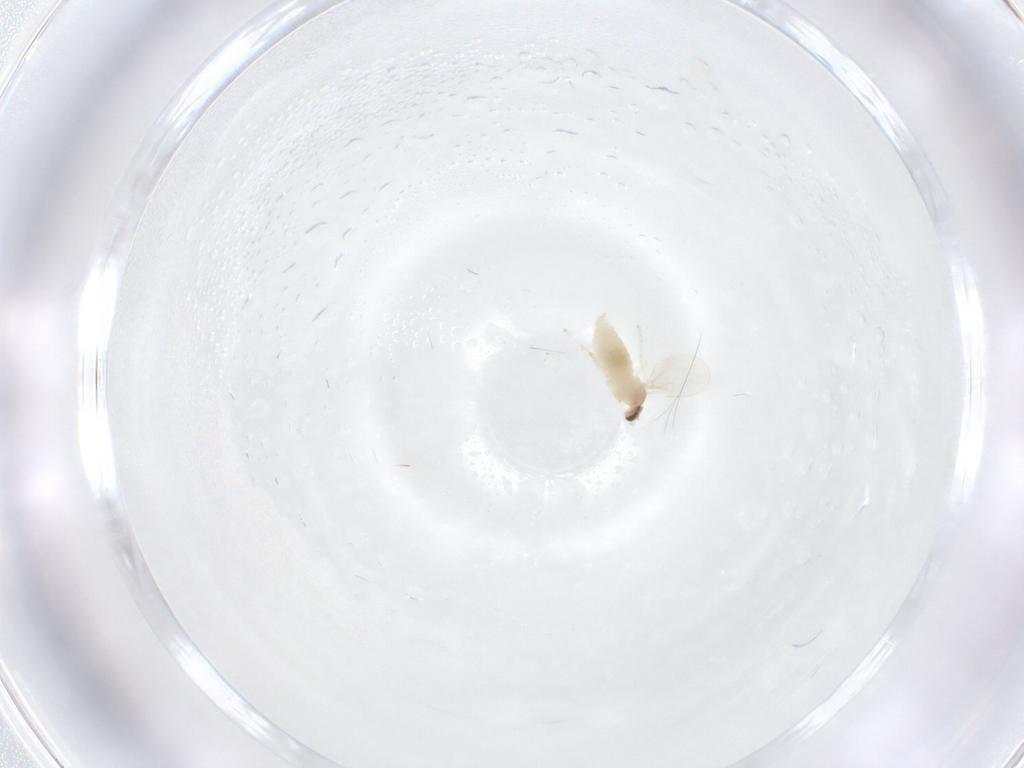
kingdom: Animalia
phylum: Arthropoda
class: Insecta
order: Diptera
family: Cecidomyiidae
